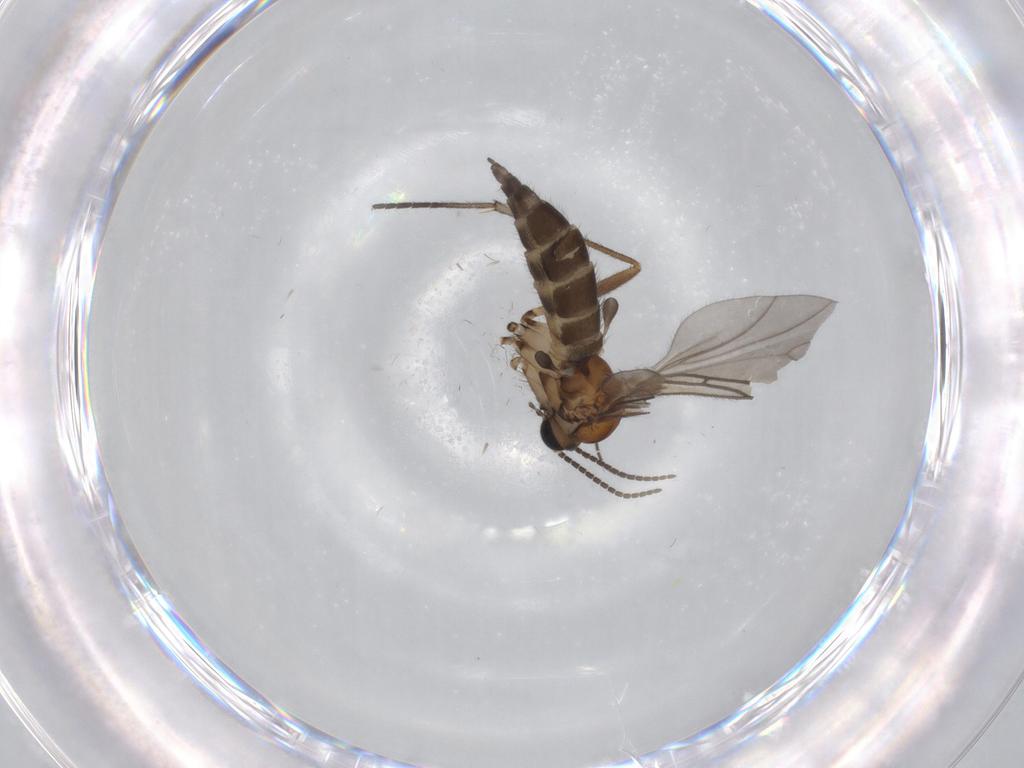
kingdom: Animalia
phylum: Arthropoda
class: Insecta
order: Diptera
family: Sciaridae
